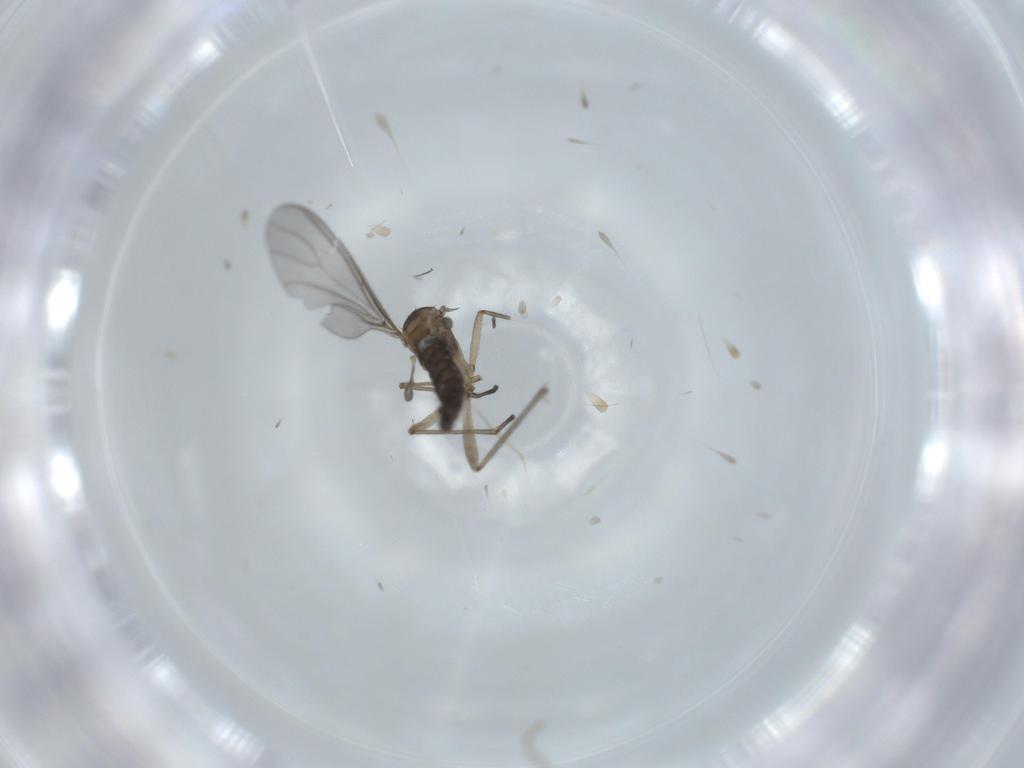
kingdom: Animalia
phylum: Arthropoda
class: Insecta
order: Diptera
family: Sciaridae
